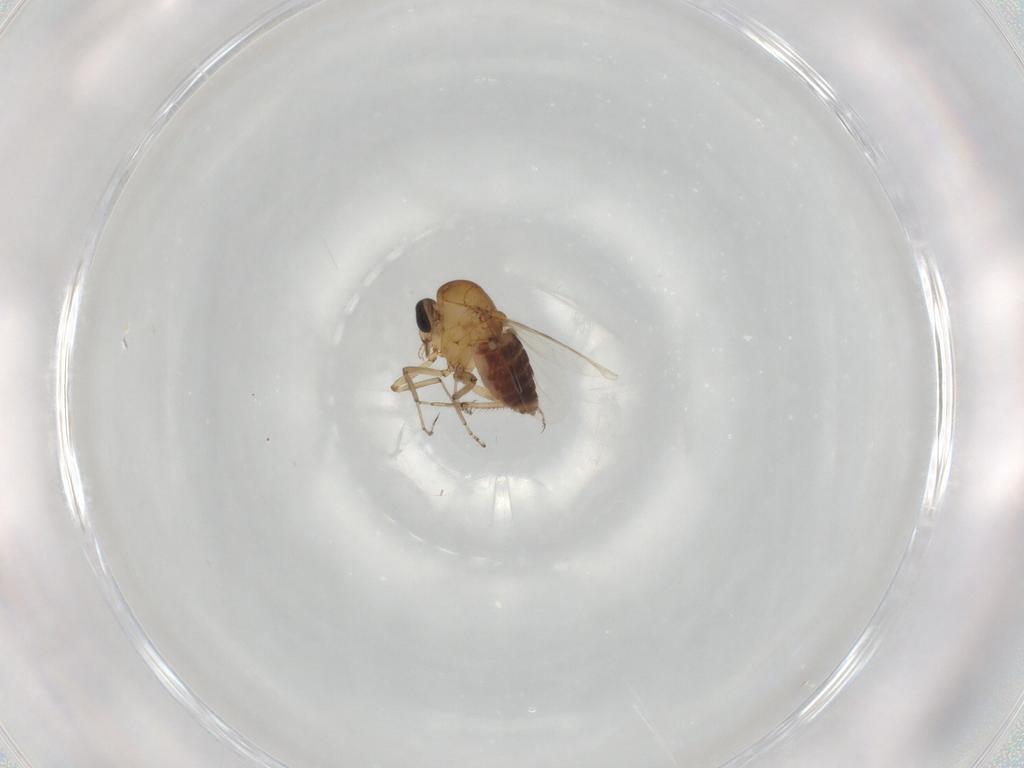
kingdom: Animalia
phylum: Arthropoda
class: Insecta
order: Diptera
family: Ceratopogonidae
